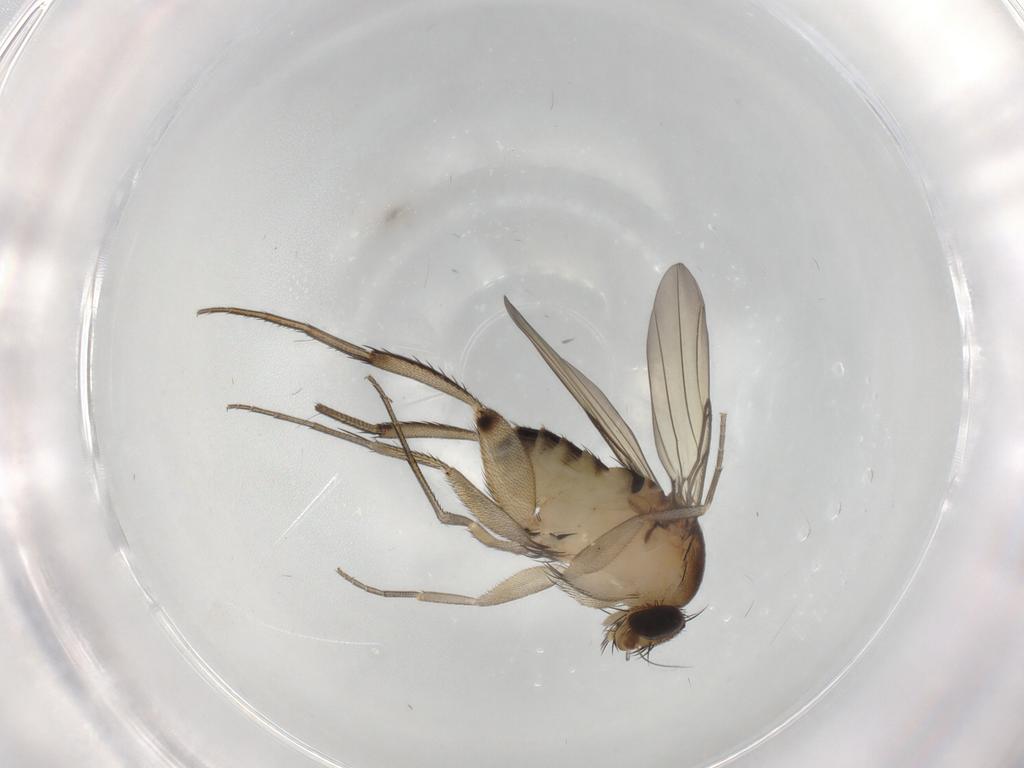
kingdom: Animalia
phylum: Arthropoda
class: Insecta
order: Diptera
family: Phoridae
